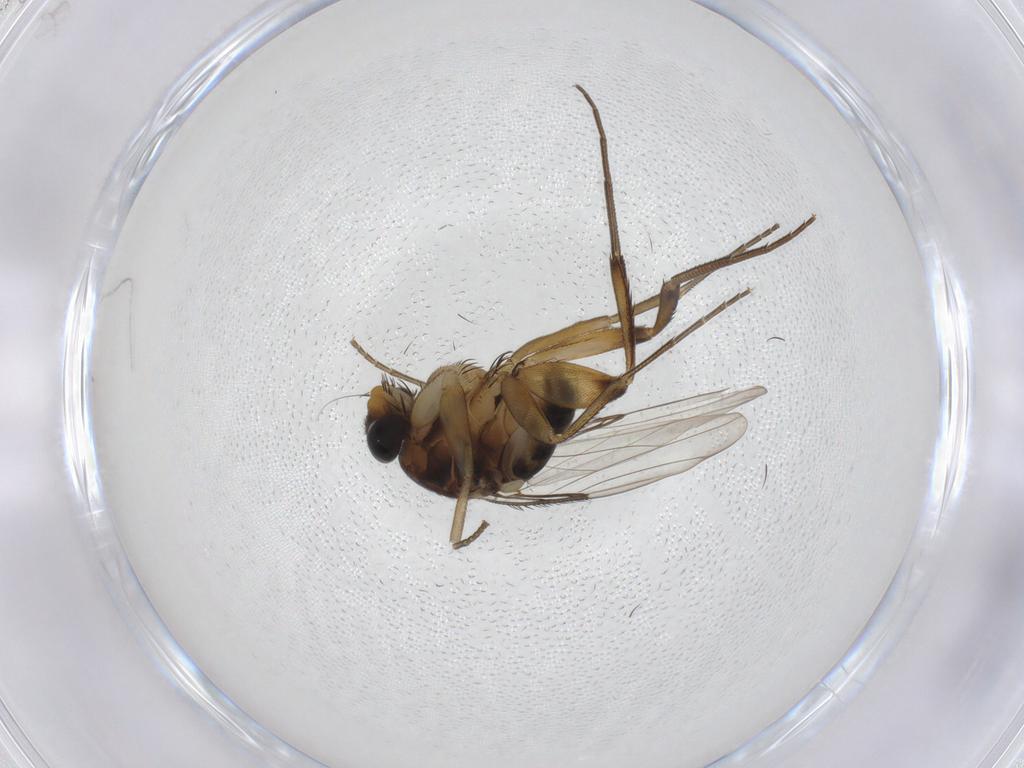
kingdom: Animalia
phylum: Arthropoda
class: Insecta
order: Diptera
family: Phoridae
